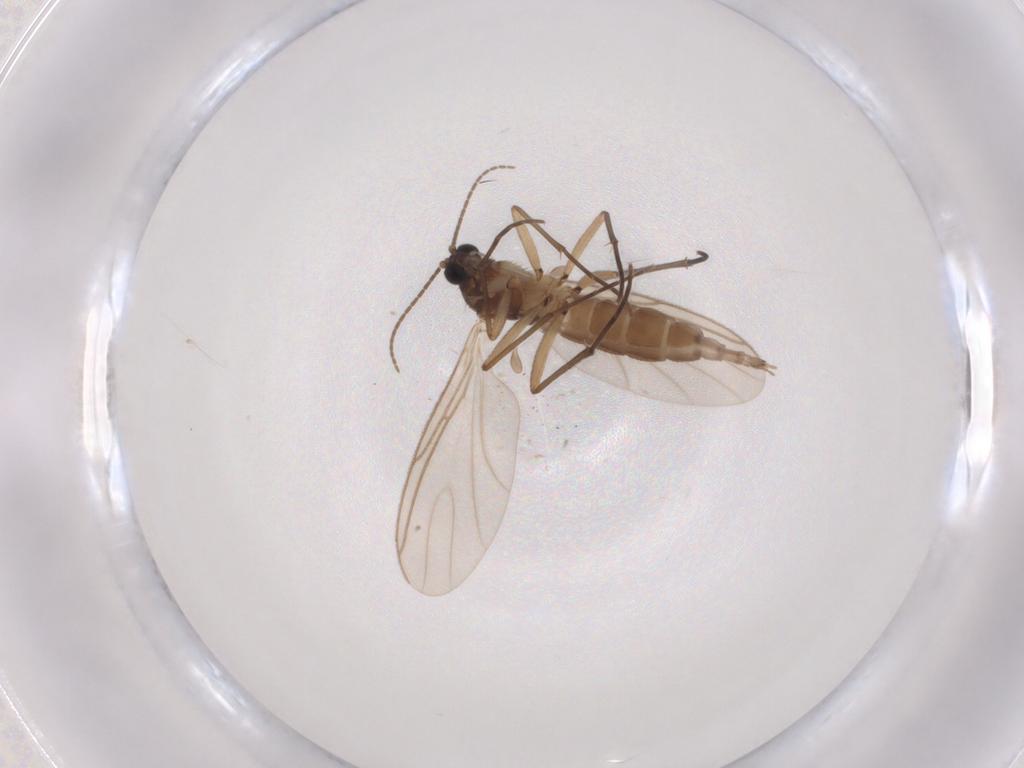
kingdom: Animalia
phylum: Arthropoda
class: Insecta
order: Diptera
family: Sciaridae
